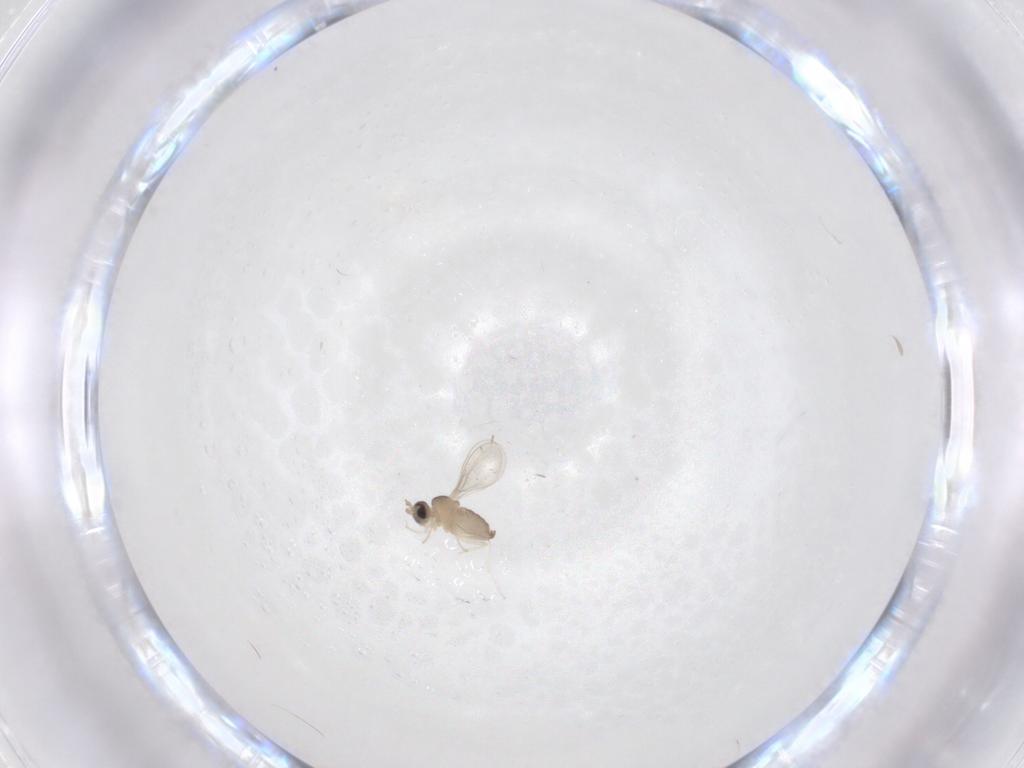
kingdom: Animalia
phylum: Arthropoda
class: Insecta
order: Diptera
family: Cecidomyiidae
